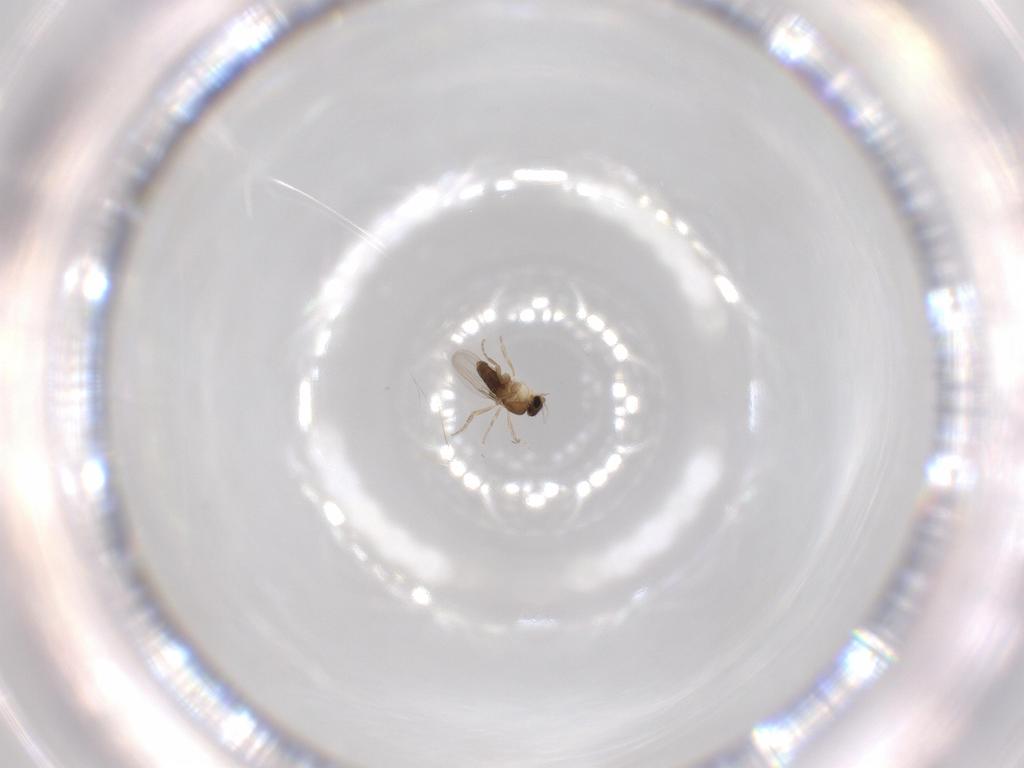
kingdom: Animalia
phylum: Arthropoda
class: Insecta
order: Diptera
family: Phoridae
